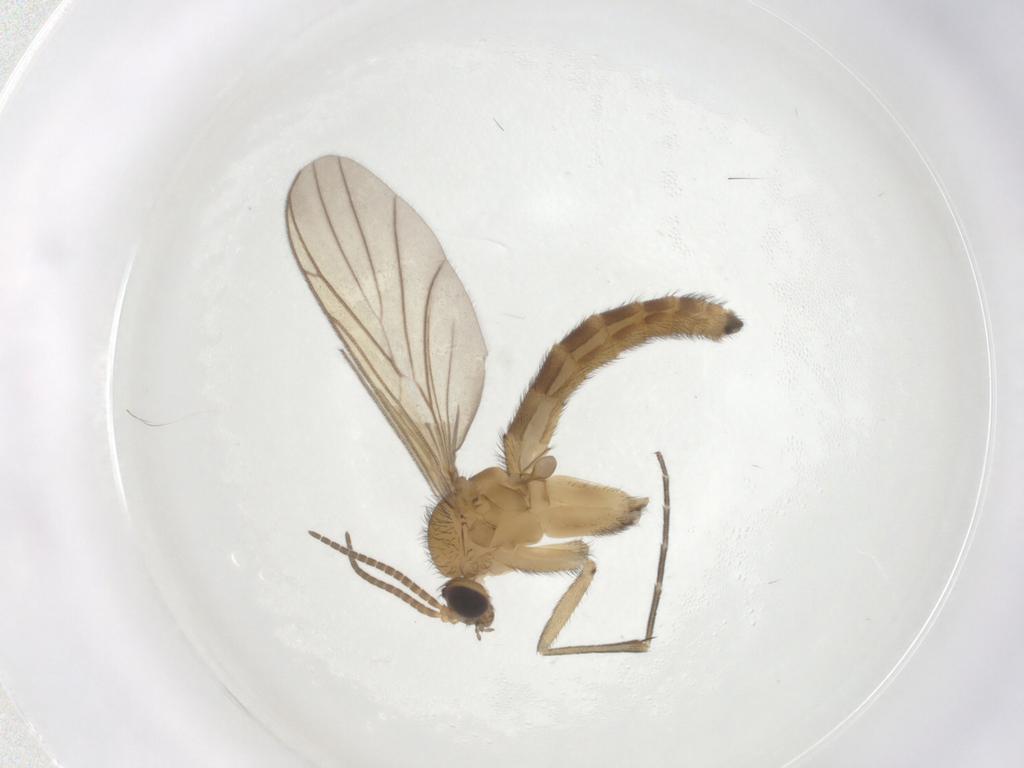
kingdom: Animalia
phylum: Arthropoda
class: Insecta
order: Diptera
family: Keroplatidae
